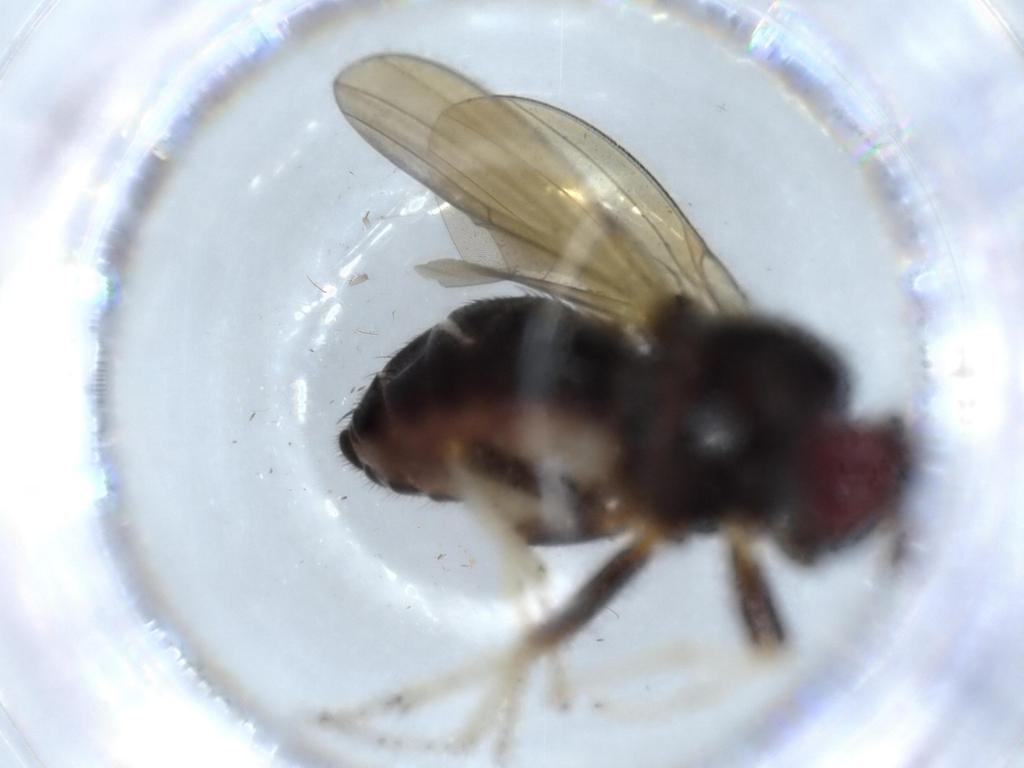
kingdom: Animalia
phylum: Arthropoda
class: Insecta
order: Diptera
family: Lauxaniidae
